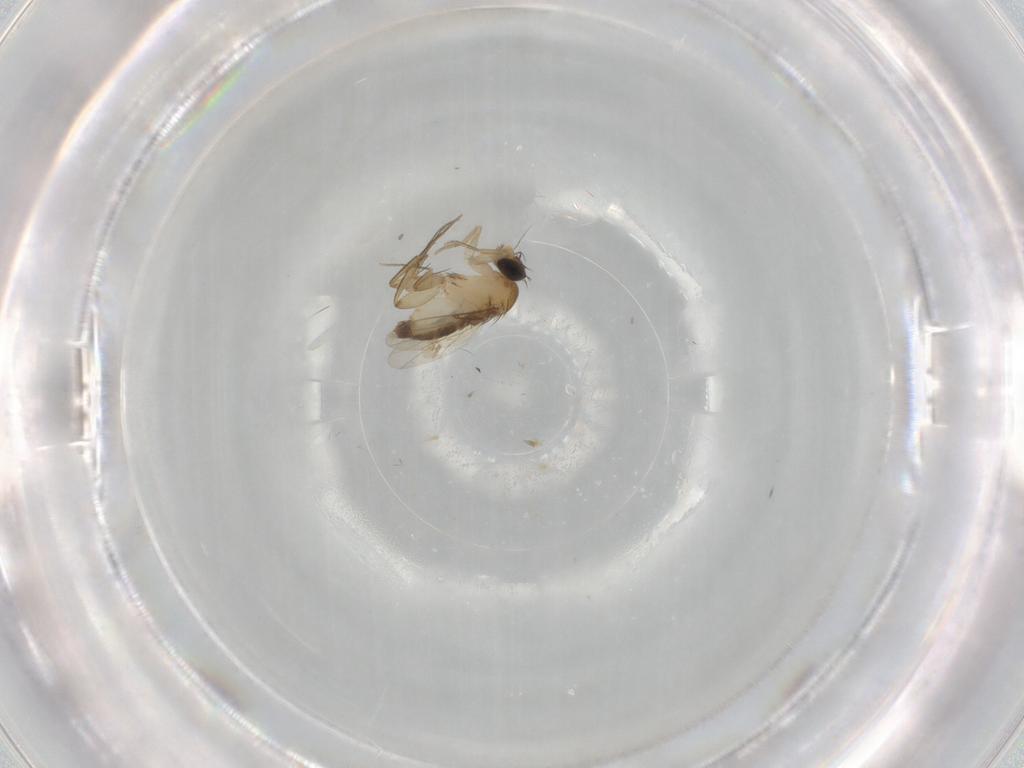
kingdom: Animalia
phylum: Arthropoda
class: Insecta
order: Diptera
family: Phoridae
